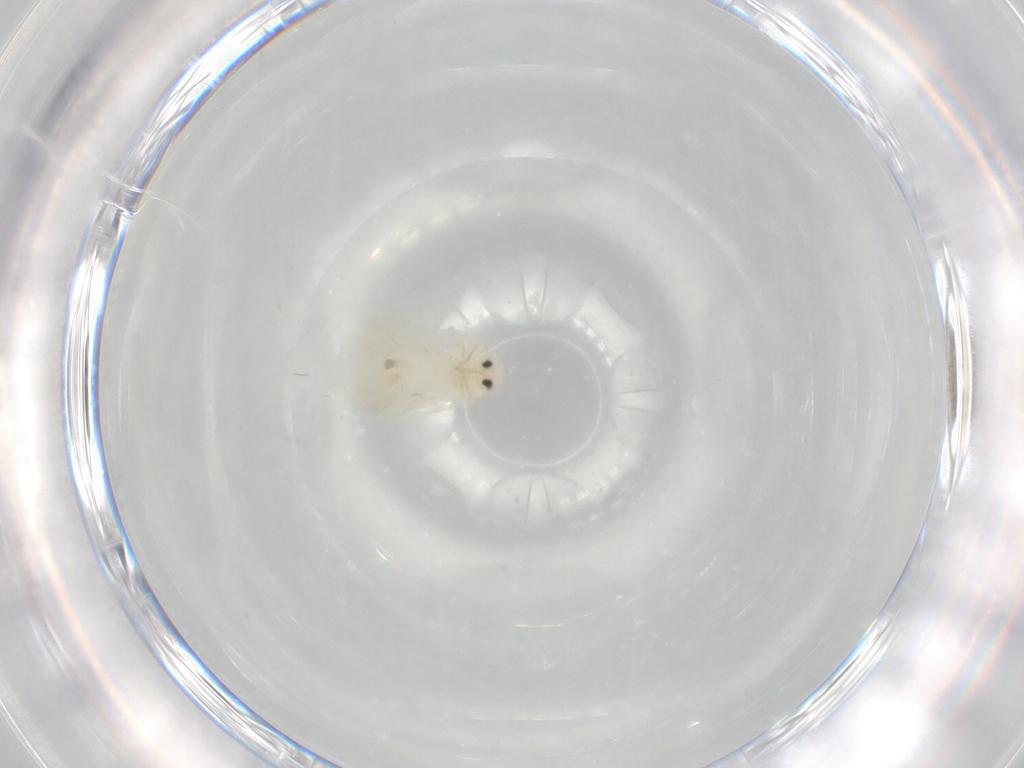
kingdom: Animalia
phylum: Arthropoda
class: Insecta
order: Hemiptera
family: Aleyrodidae
